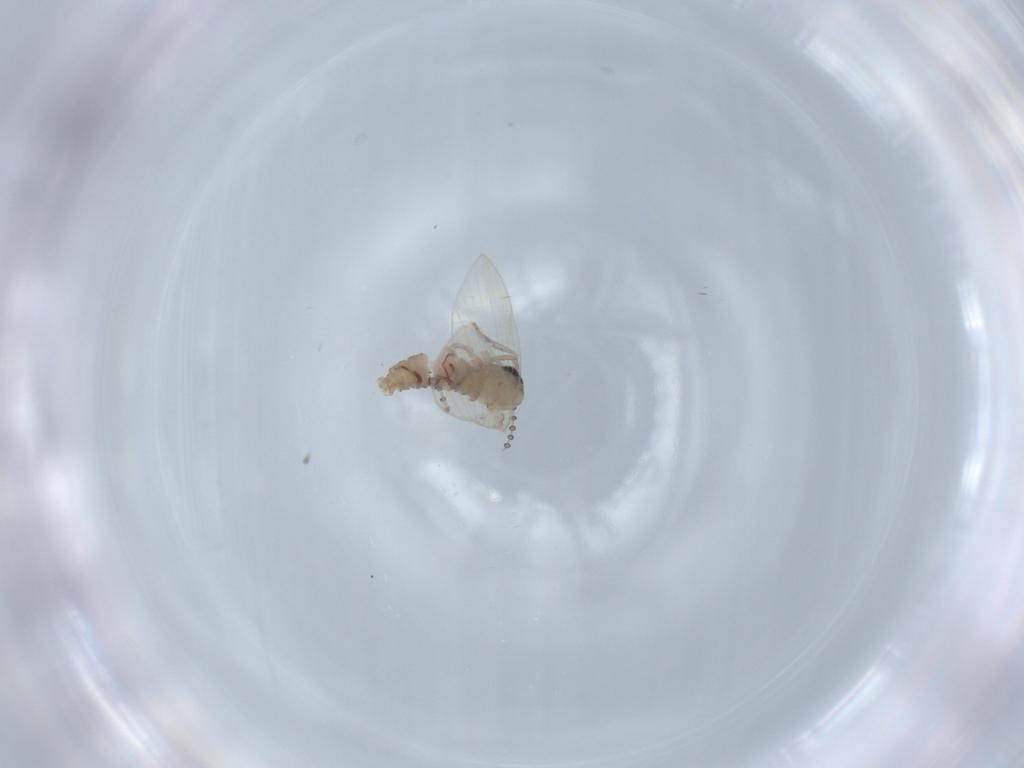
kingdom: Animalia
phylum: Arthropoda
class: Insecta
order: Diptera
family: Psychodidae
